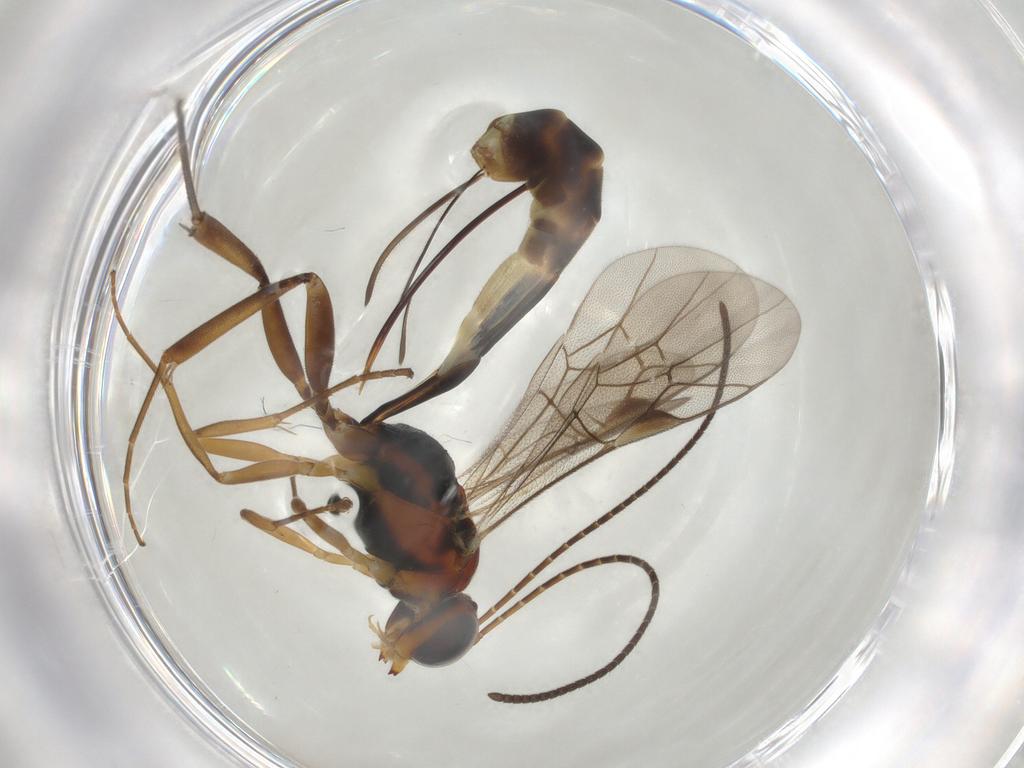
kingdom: Animalia
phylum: Arthropoda
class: Insecta
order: Hymenoptera
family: Ichneumonidae
